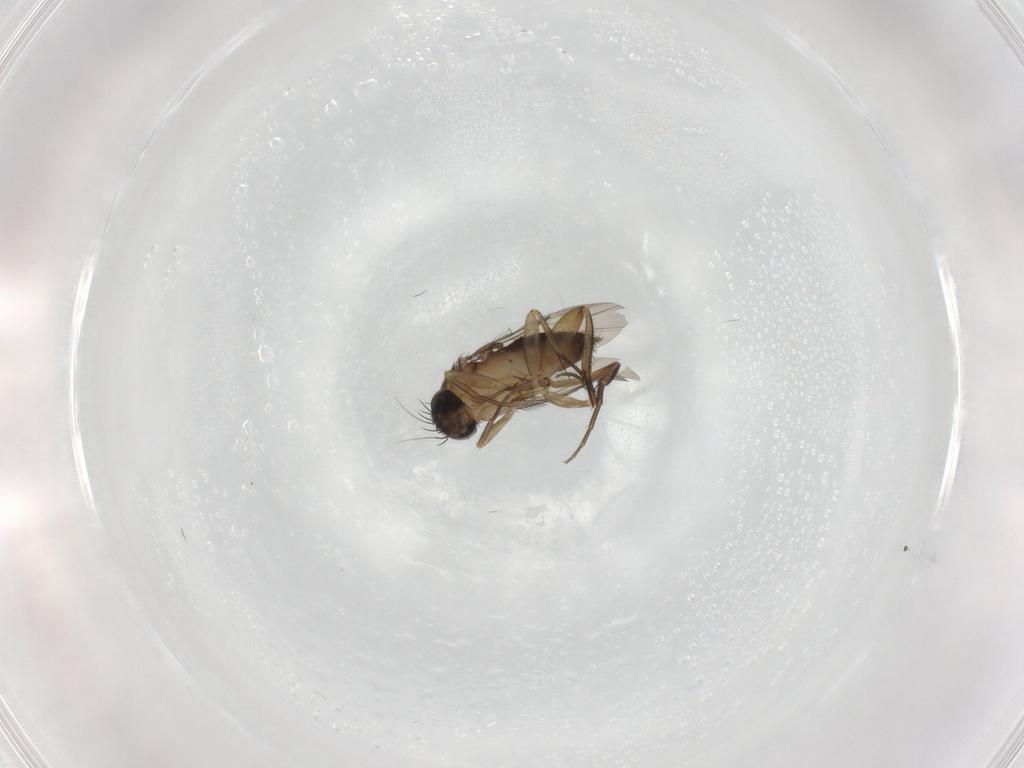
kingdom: Animalia
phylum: Arthropoda
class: Insecta
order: Diptera
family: Phoridae
